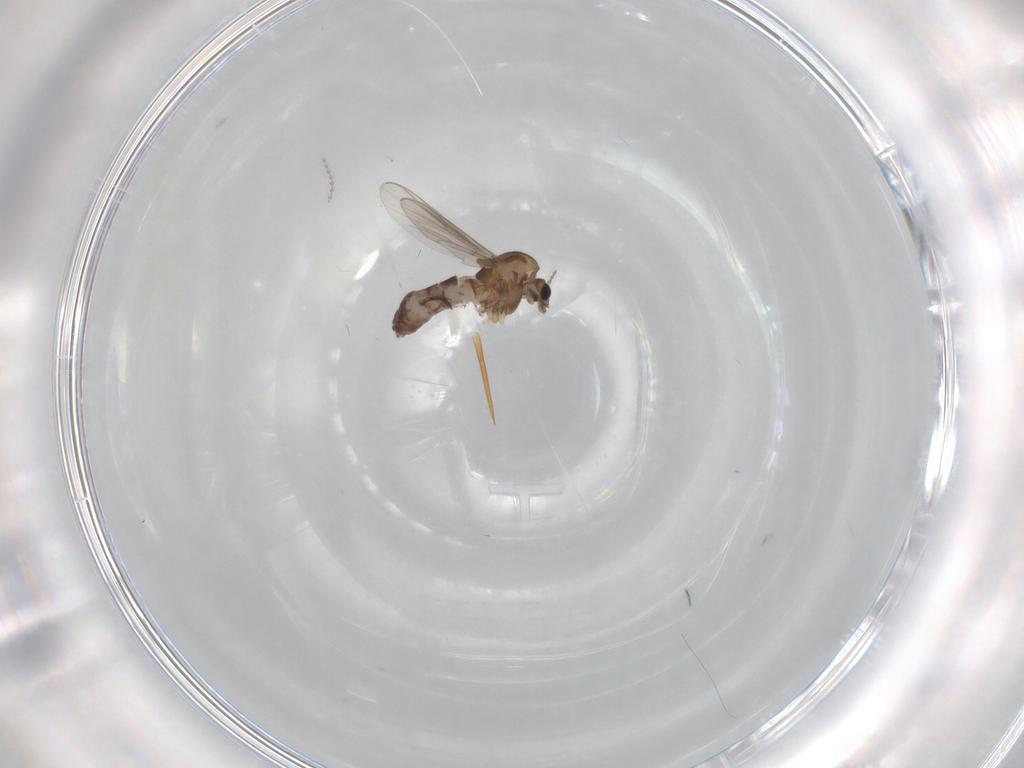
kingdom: Animalia
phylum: Arthropoda
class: Insecta
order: Diptera
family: Chironomidae
